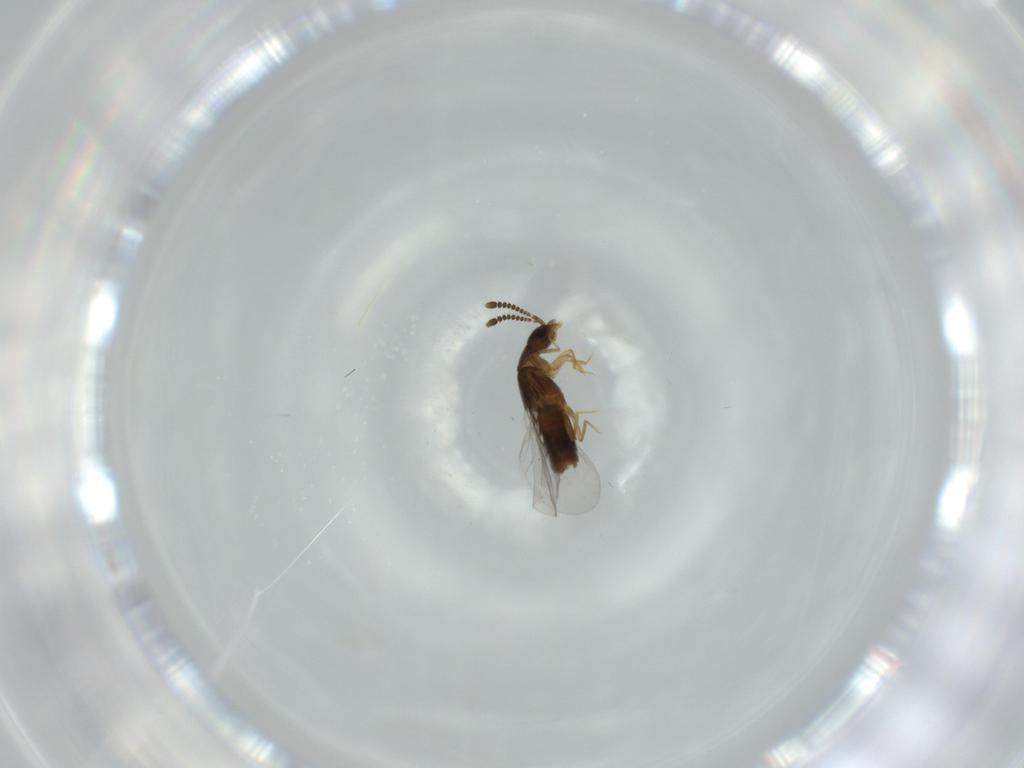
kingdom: Animalia
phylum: Arthropoda
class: Insecta
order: Coleoptera
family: Staphylinidae
